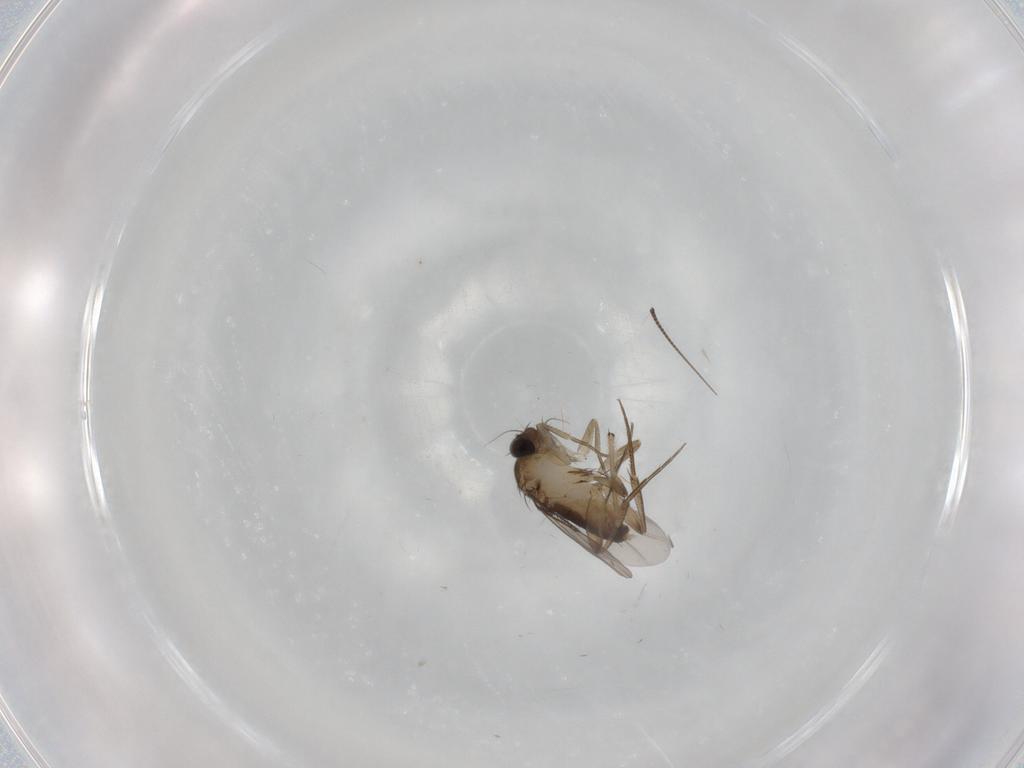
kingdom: Animalia
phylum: Arthropoda
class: Insecta
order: Diptera
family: Phoridae
